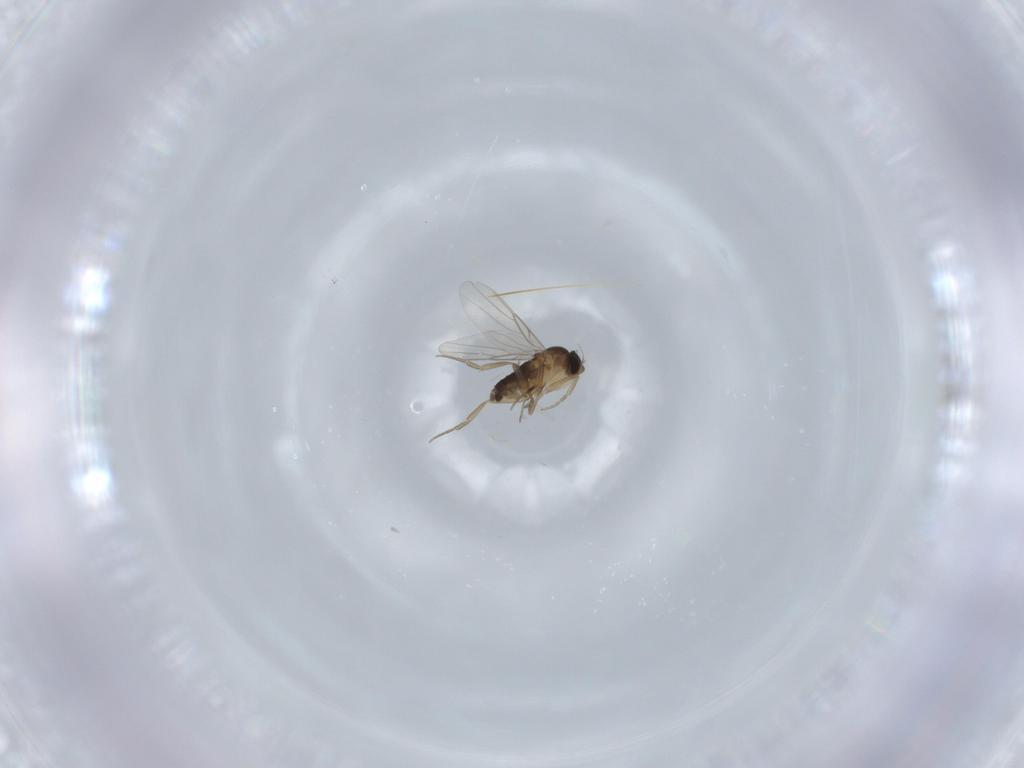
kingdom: Animalia
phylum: Arthropoda
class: Insecta
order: Diptera
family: Phoridae
